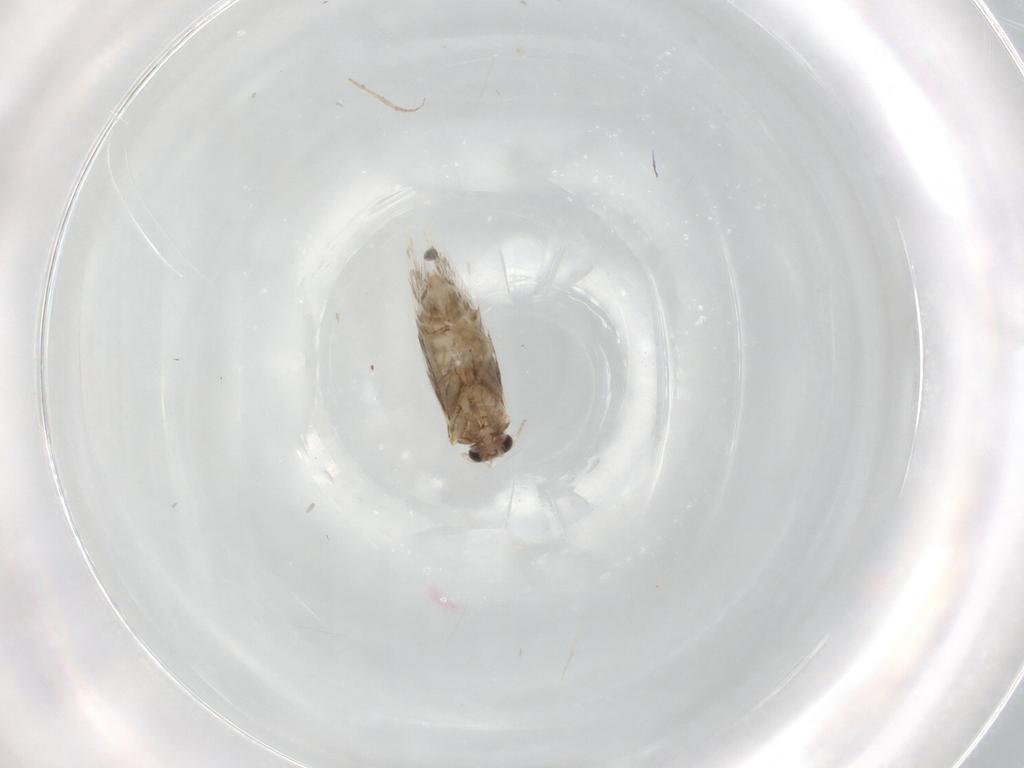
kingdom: Animalia
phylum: Arthropoda
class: Insecta
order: Lepidoptera
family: Nepticulidae
